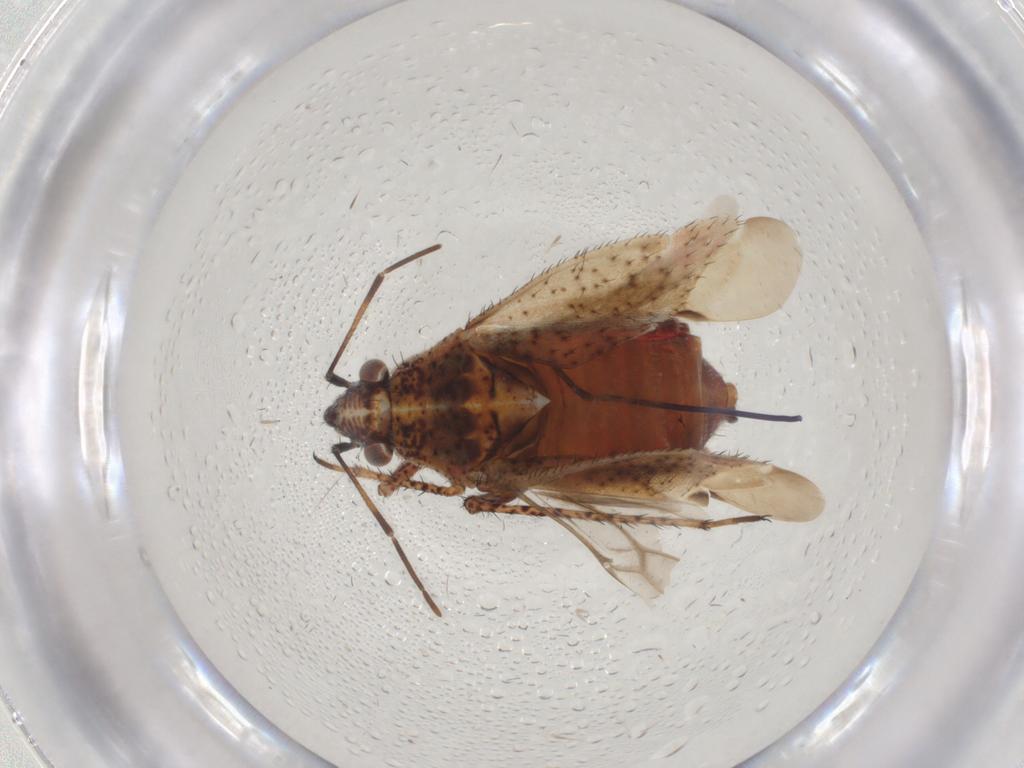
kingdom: Animalia
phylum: Arthropoda
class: Insecta
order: Hemiptera
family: Miridae
